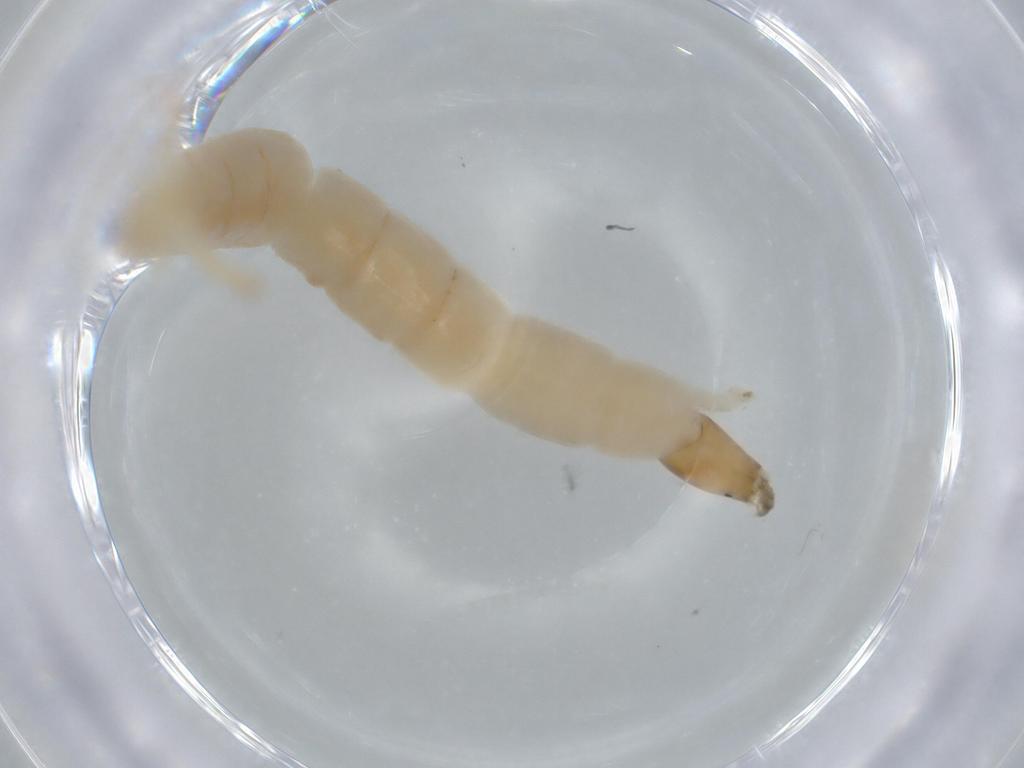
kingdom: Animalia
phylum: Arthropoda
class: Insecta
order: Diptera
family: Chironomidae
